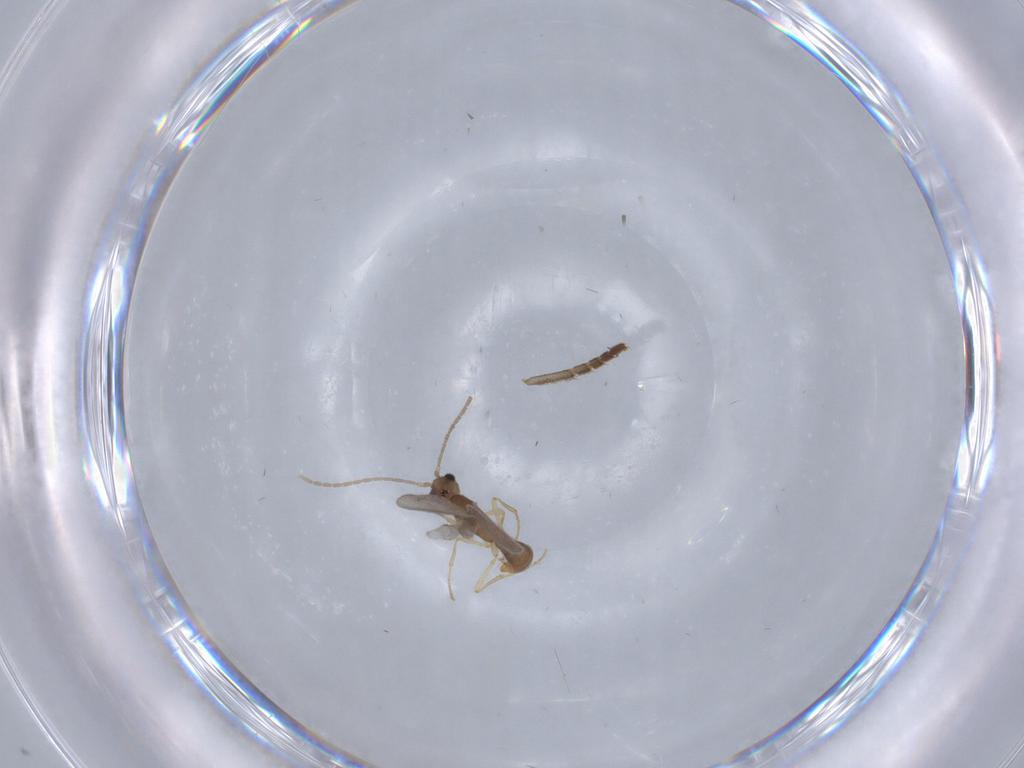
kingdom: Animalia
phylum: Arthropoda
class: Insecta
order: Hymenoptera
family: Formicidae
